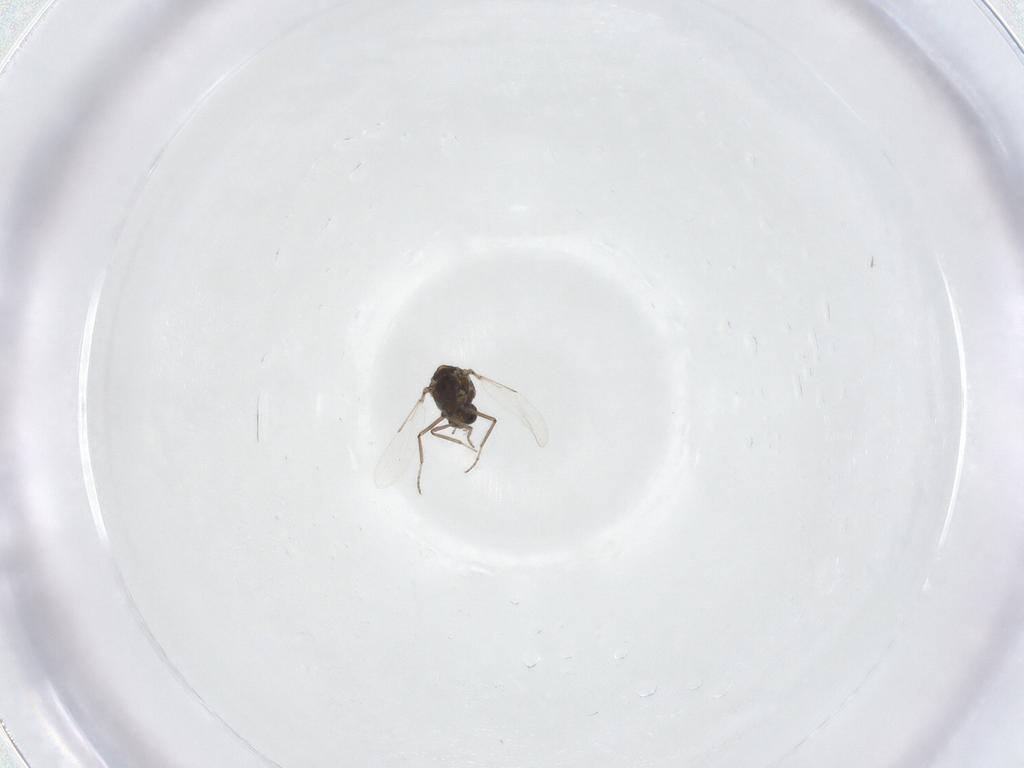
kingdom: Animalia
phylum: Arthropoda
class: Insecta
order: Diptera
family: Ceratopogonidae
